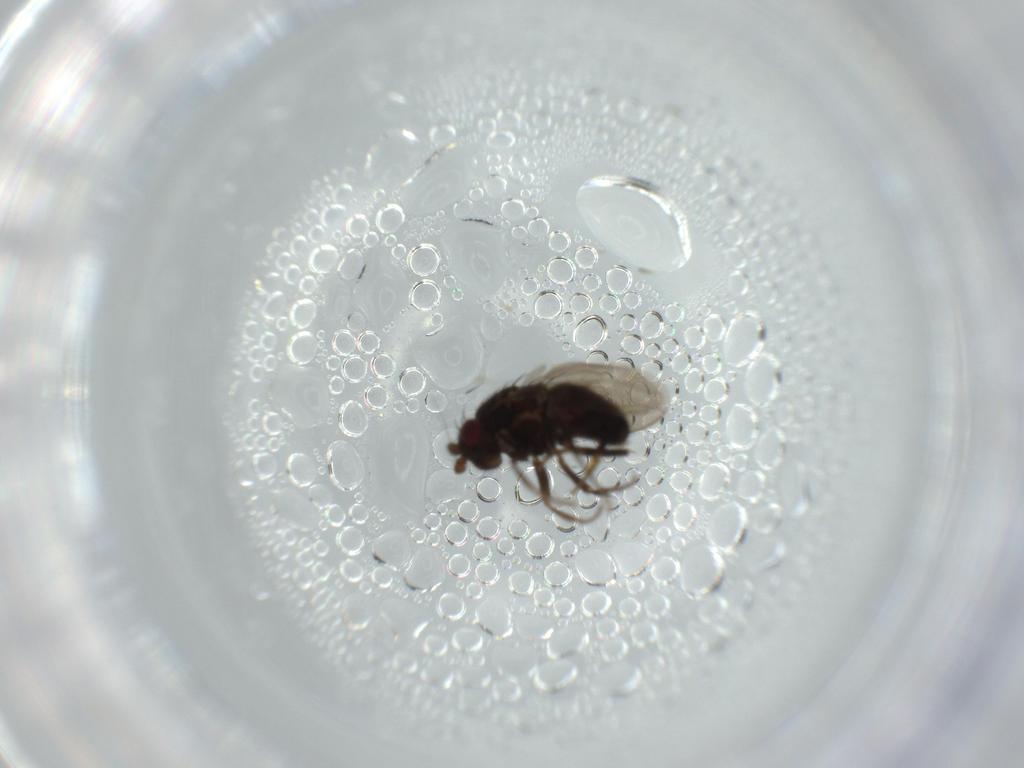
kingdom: Animalia
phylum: Arthropoda
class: Insecta
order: Diptera
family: Sphaeroceridae
